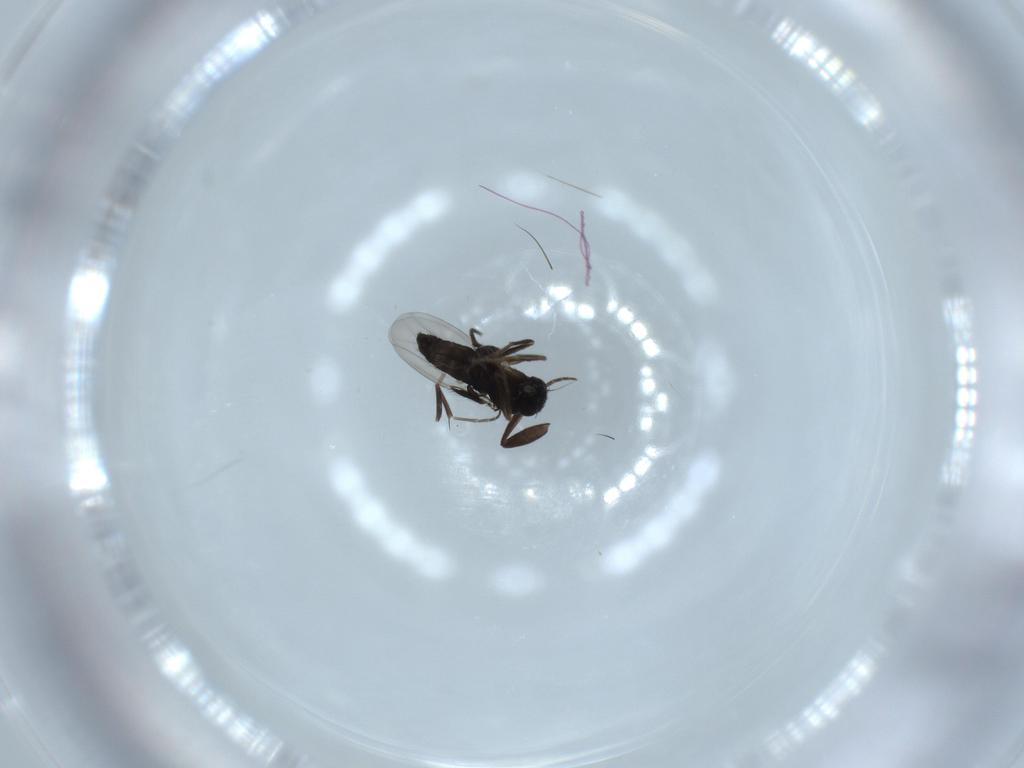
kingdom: Animalia
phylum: Arthropoda
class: Insecta
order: Diptera
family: Phoridae
